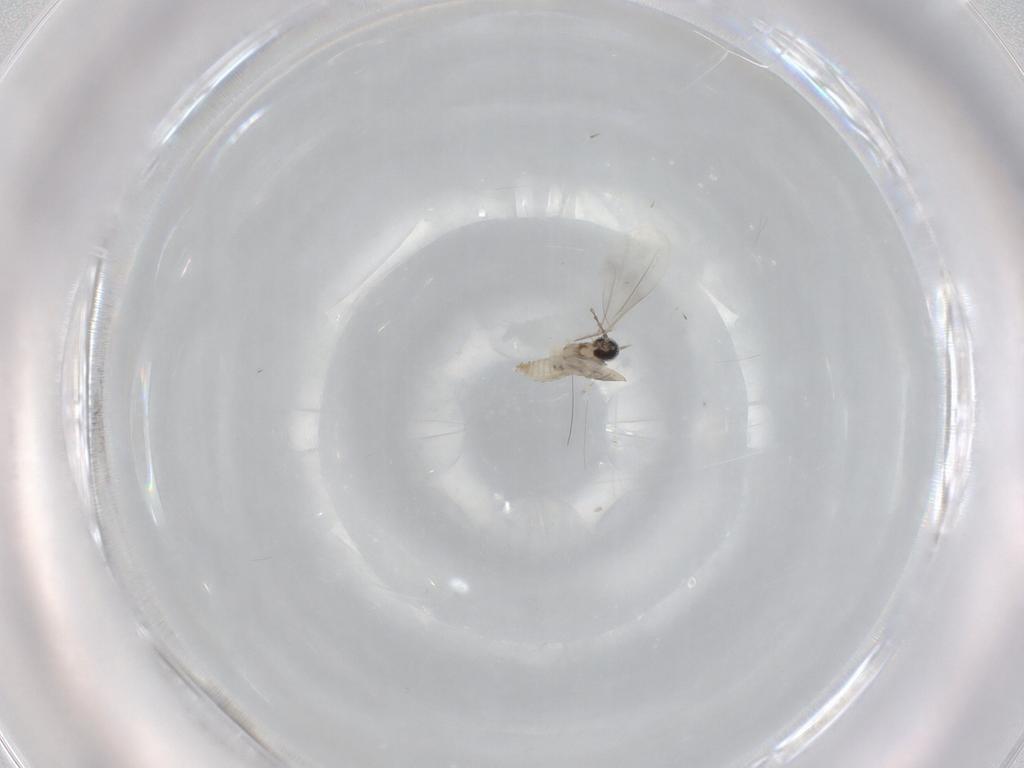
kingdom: Animalia
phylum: Arthropoda
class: Insecta
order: Diptera
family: Cecidomyiidae
